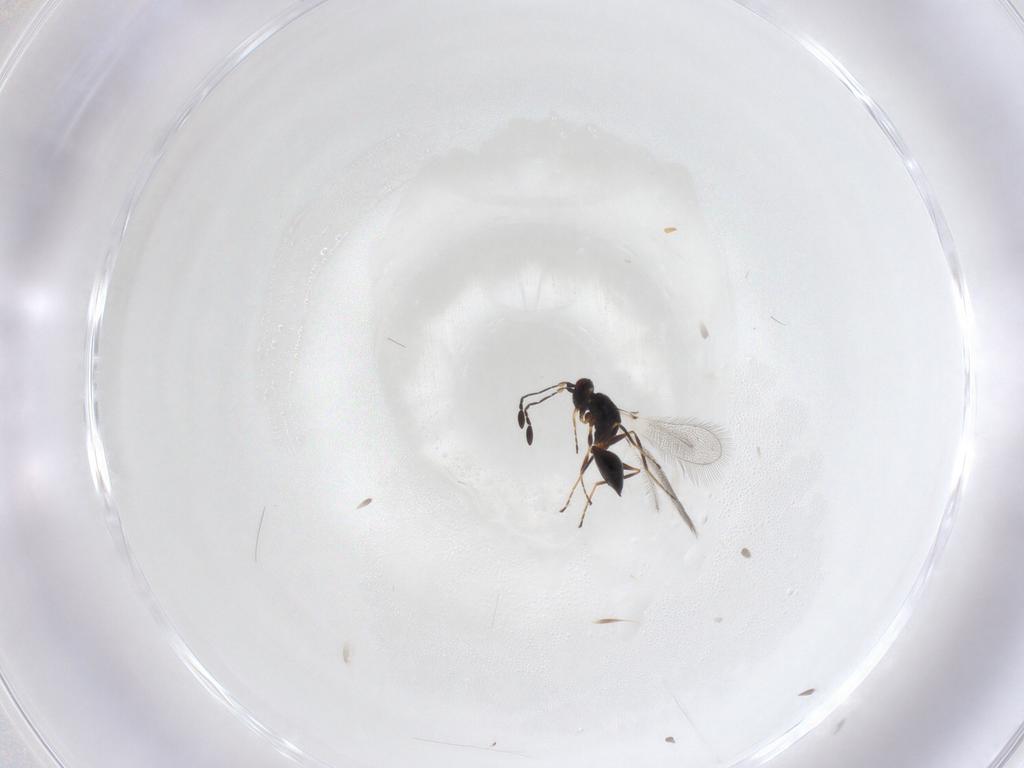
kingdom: Animalia
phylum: Arthropoda
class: Insecta
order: Hymenoptera
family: Mymaridae
